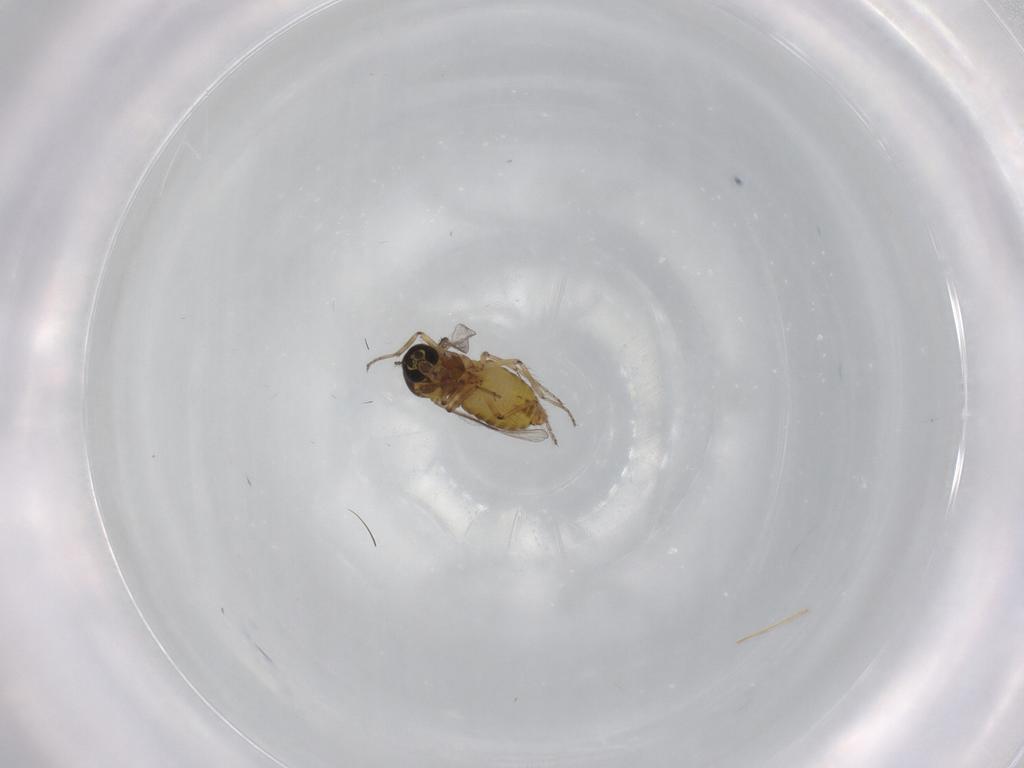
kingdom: Animalia
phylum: Arthropoda
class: Insecta
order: Diptera
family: Ceratopogonidae
